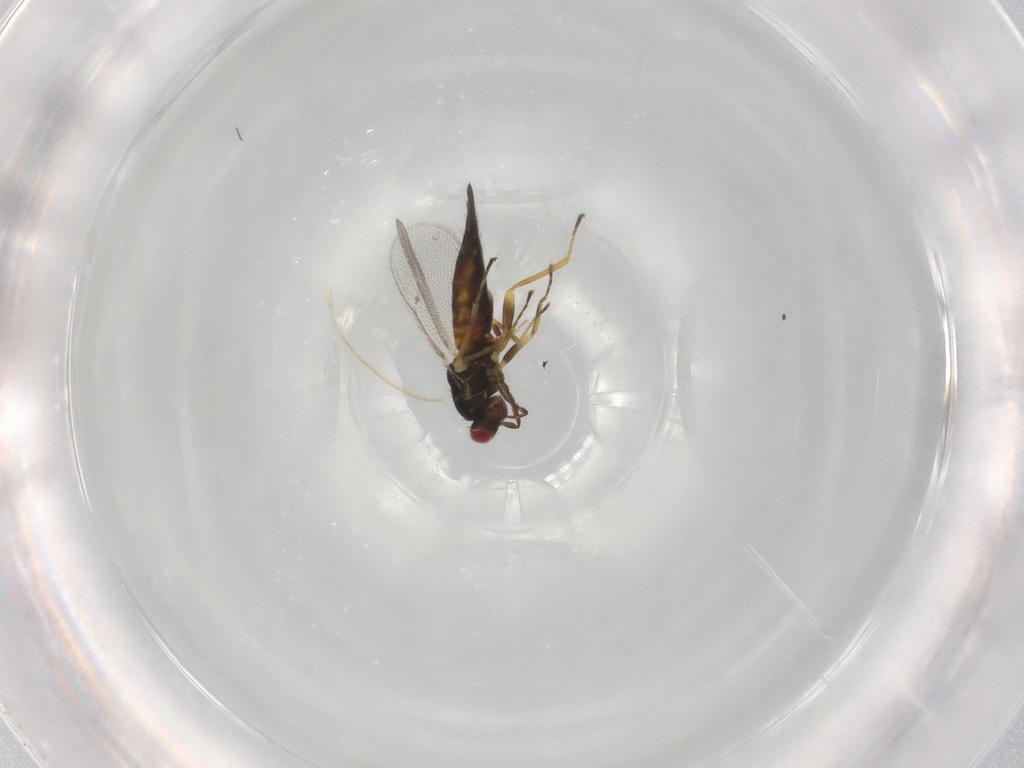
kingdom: Animalia
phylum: Arthropoda
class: Insecta
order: Hymenoptera
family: Eulophidae
